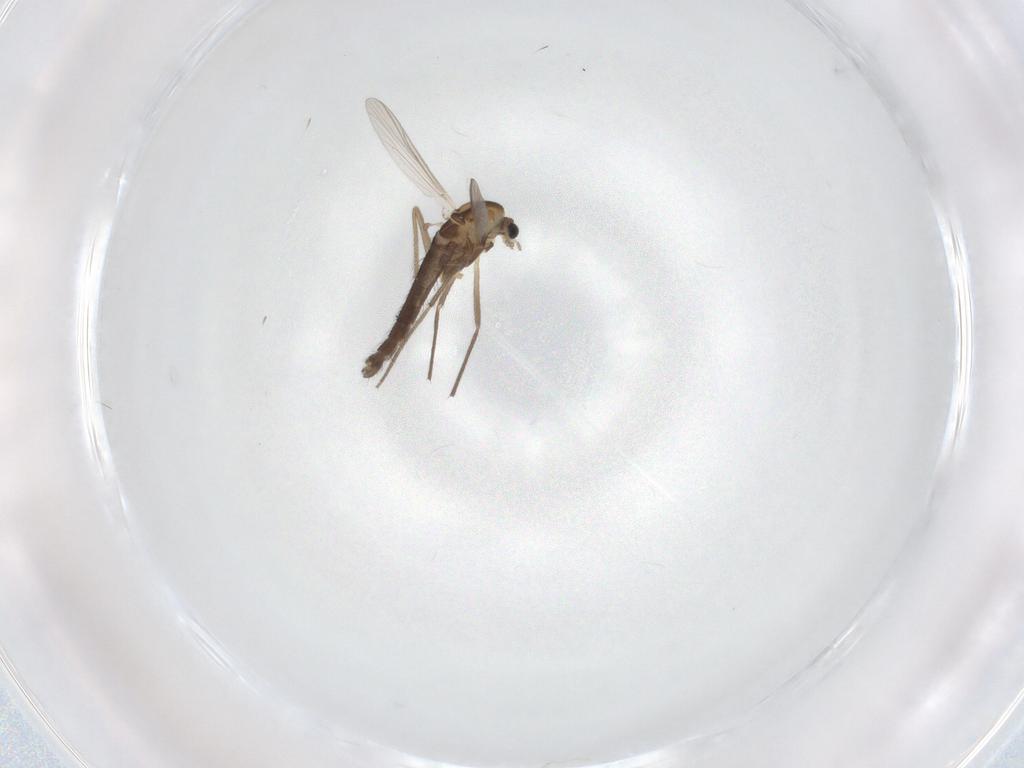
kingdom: Animalia
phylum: Arthropoda
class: Insecta
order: Diptera
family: Chironomidae
